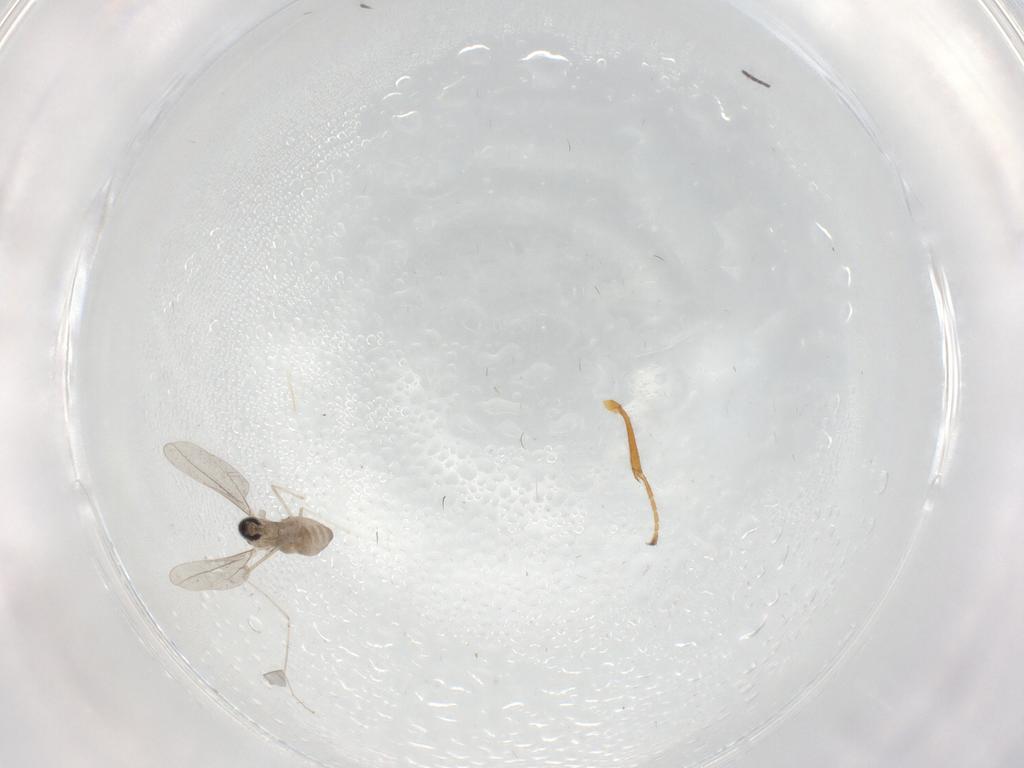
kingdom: Animalia
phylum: Arthropoda
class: Insecta
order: Diptera
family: Sciaridae
